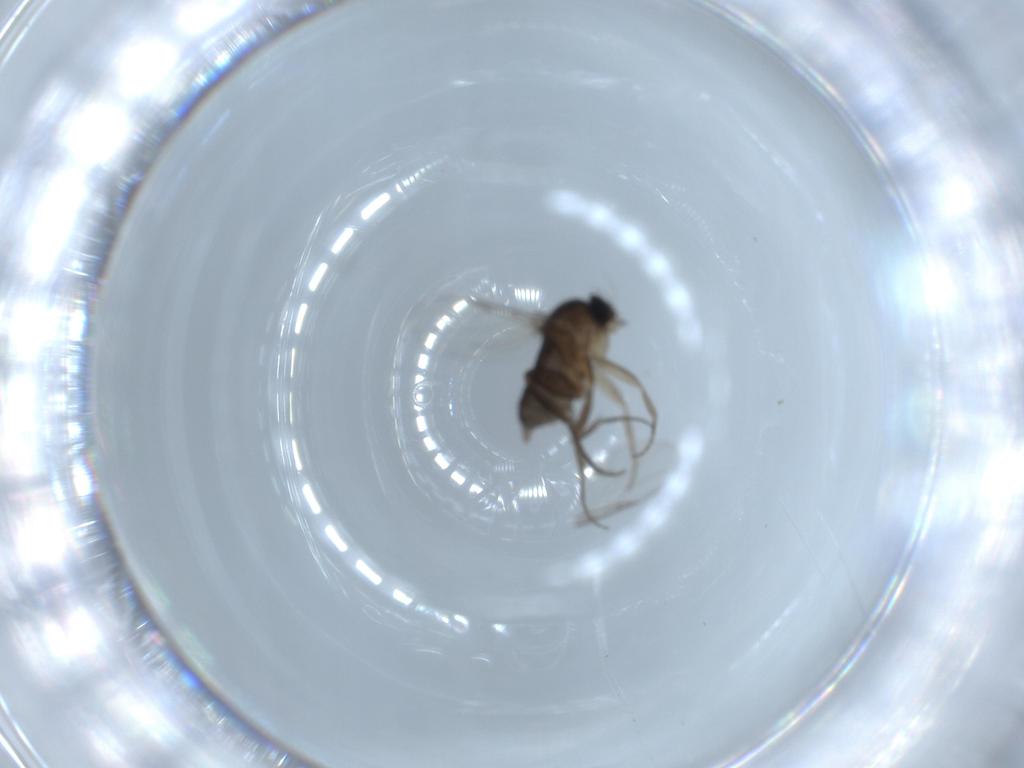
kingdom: Animalia
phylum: Arthropoda
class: Insecta
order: Diptera
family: Phoridae
